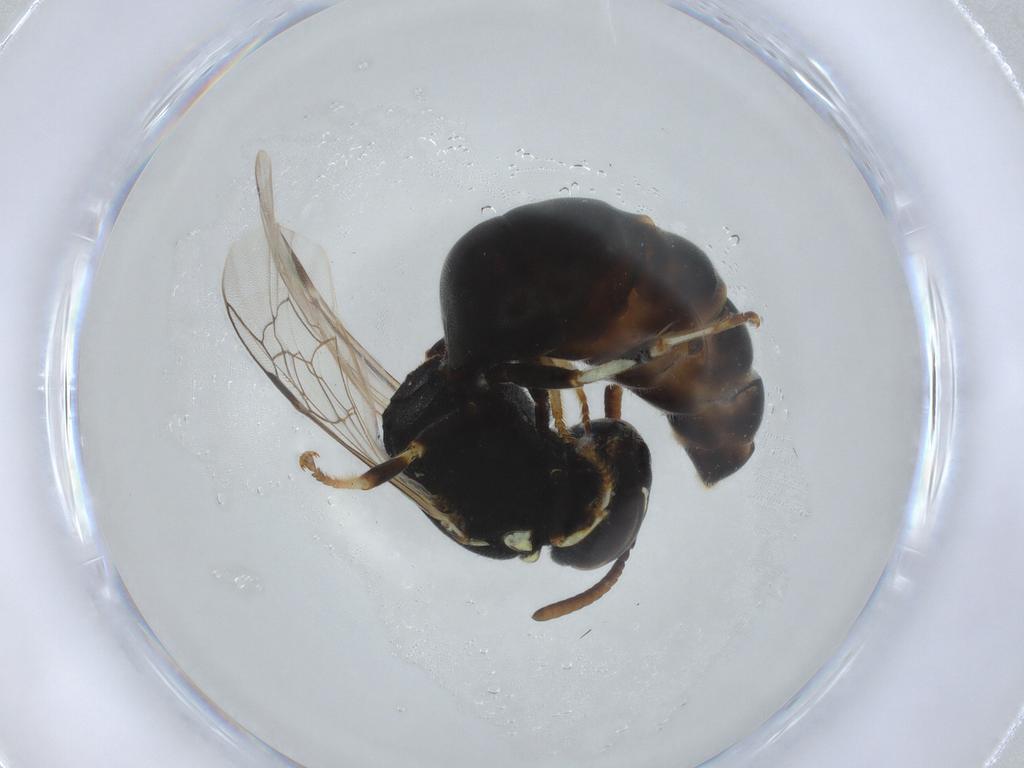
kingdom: Animalia
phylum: Arthropoda
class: Insecta
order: Hymenoptera
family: Colletidae
